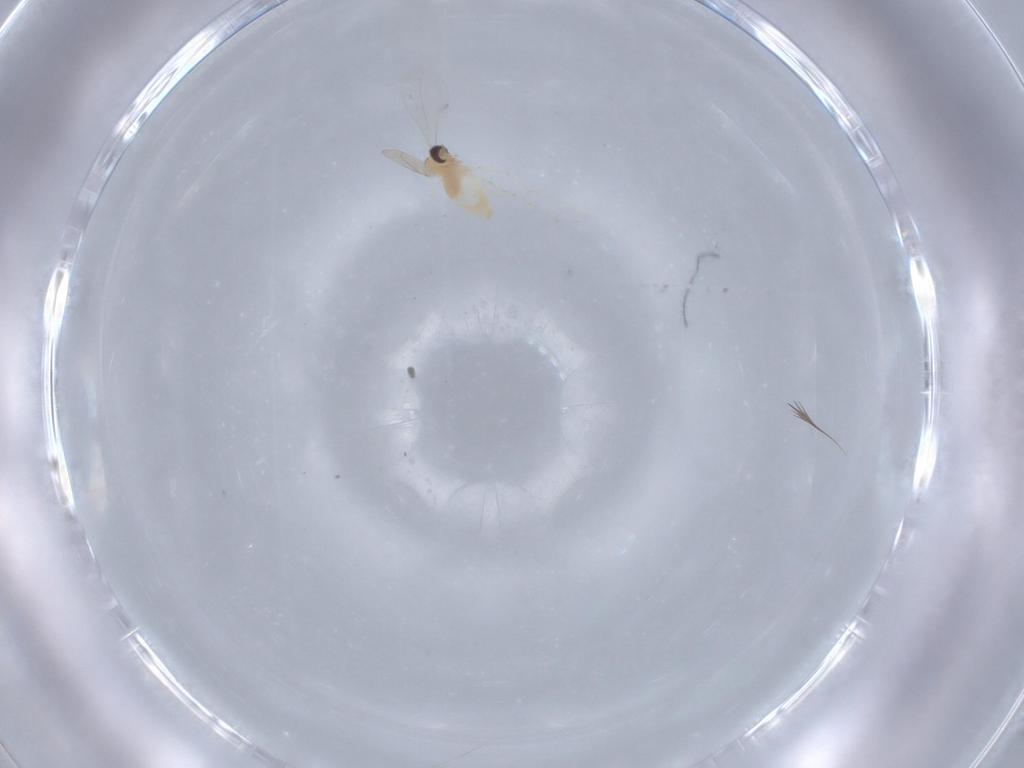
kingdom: Animalia
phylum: Arthropoda
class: Insecta
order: Diptera
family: Cecidomyiidae
